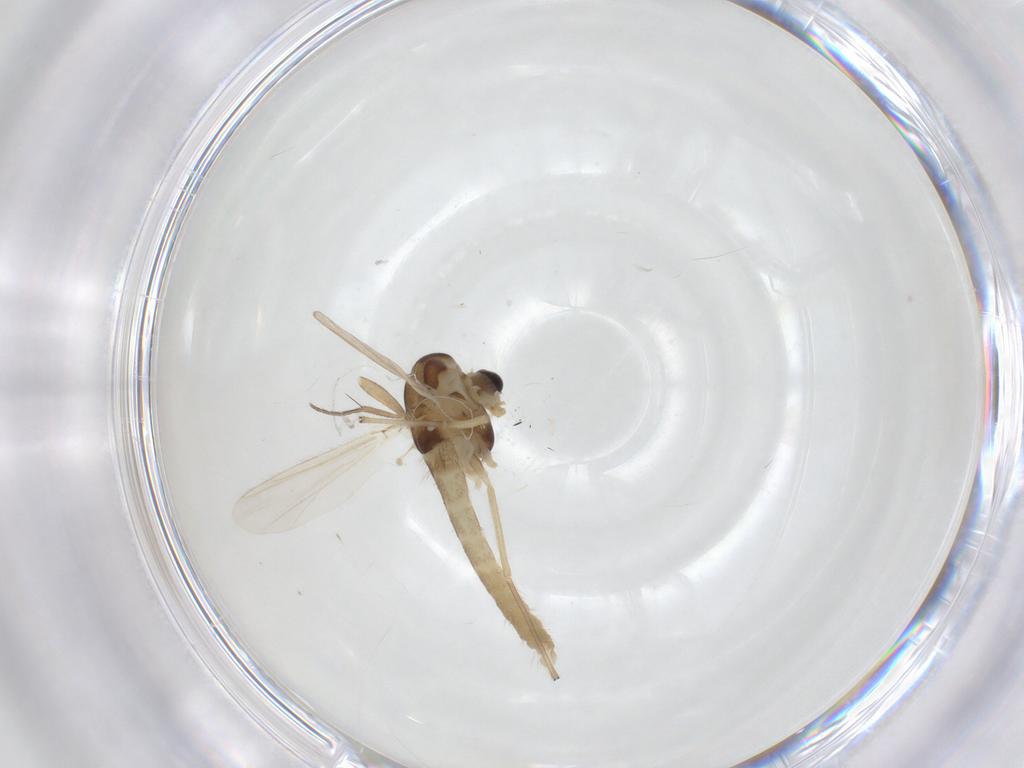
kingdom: Animalia
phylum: Arthropoda
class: Insecta
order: Diptera
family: Chironomidae
